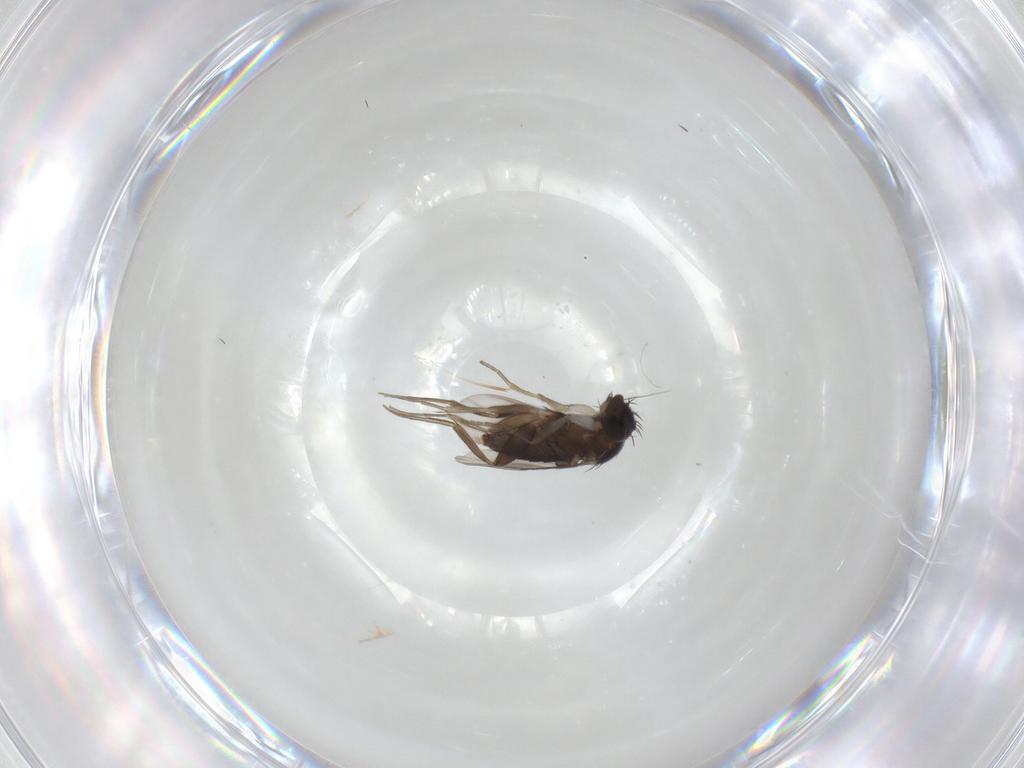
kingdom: Animalia
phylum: Arthropoda
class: Insecta
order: Diptera
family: Phoridae
